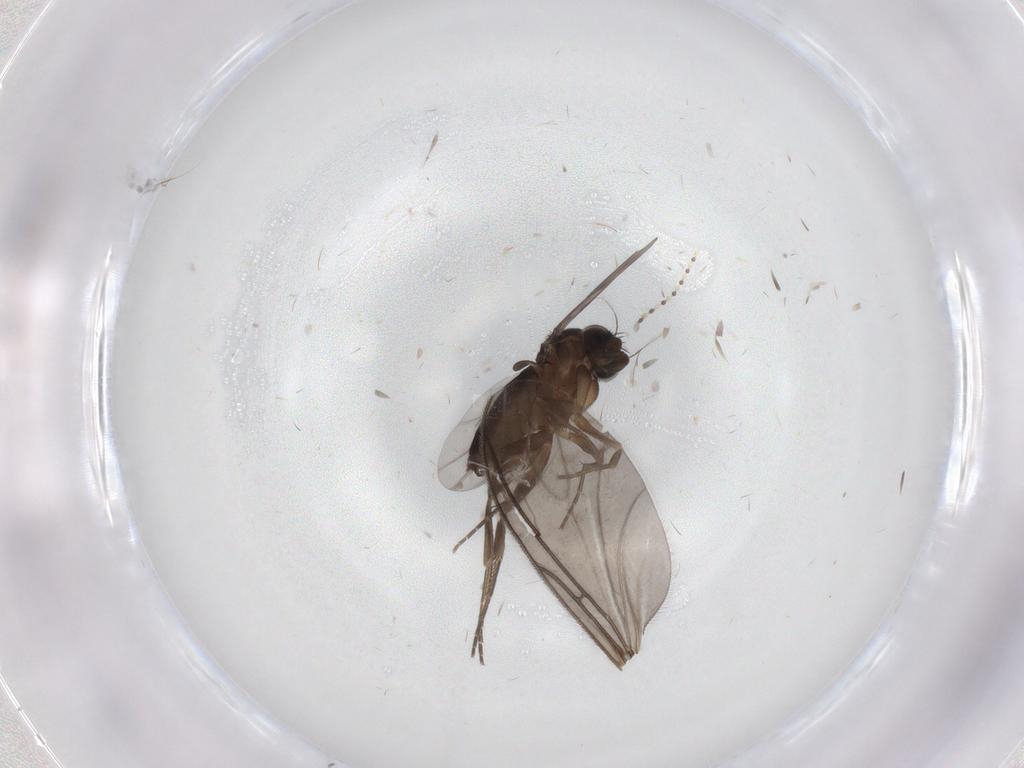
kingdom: Animalia
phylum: Arthropoda
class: Insecta
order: Diptera
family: Phoridae
